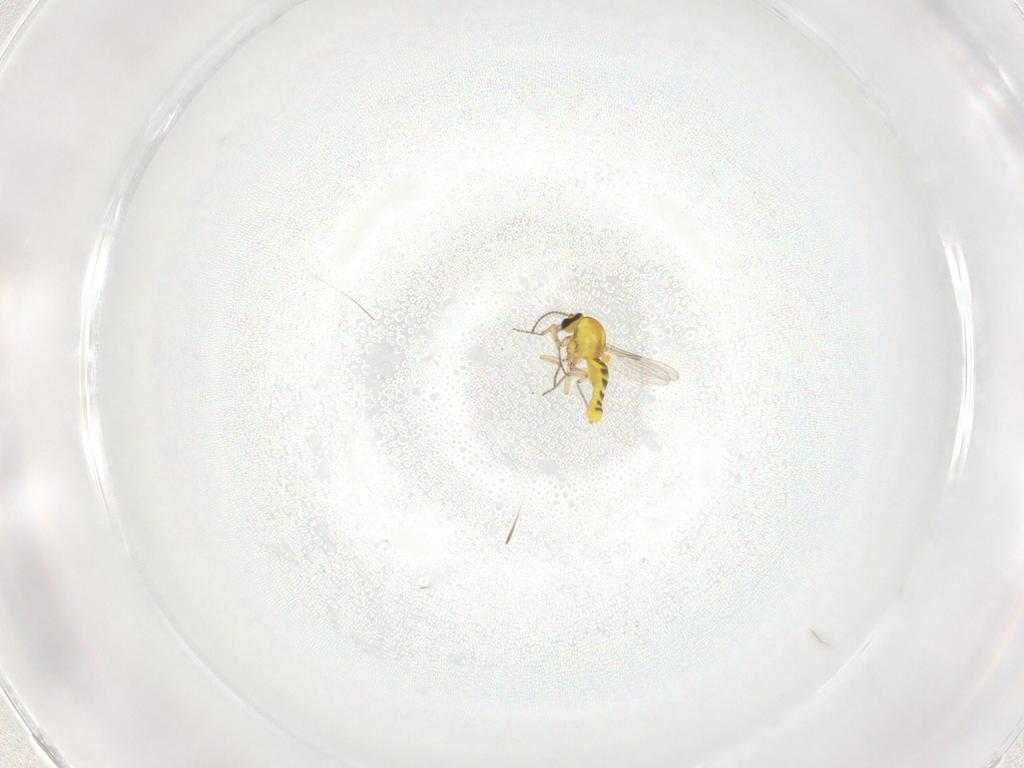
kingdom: Animalia
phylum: Arthropoda
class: Insecta
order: Diptera
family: Ceratopogonidae
